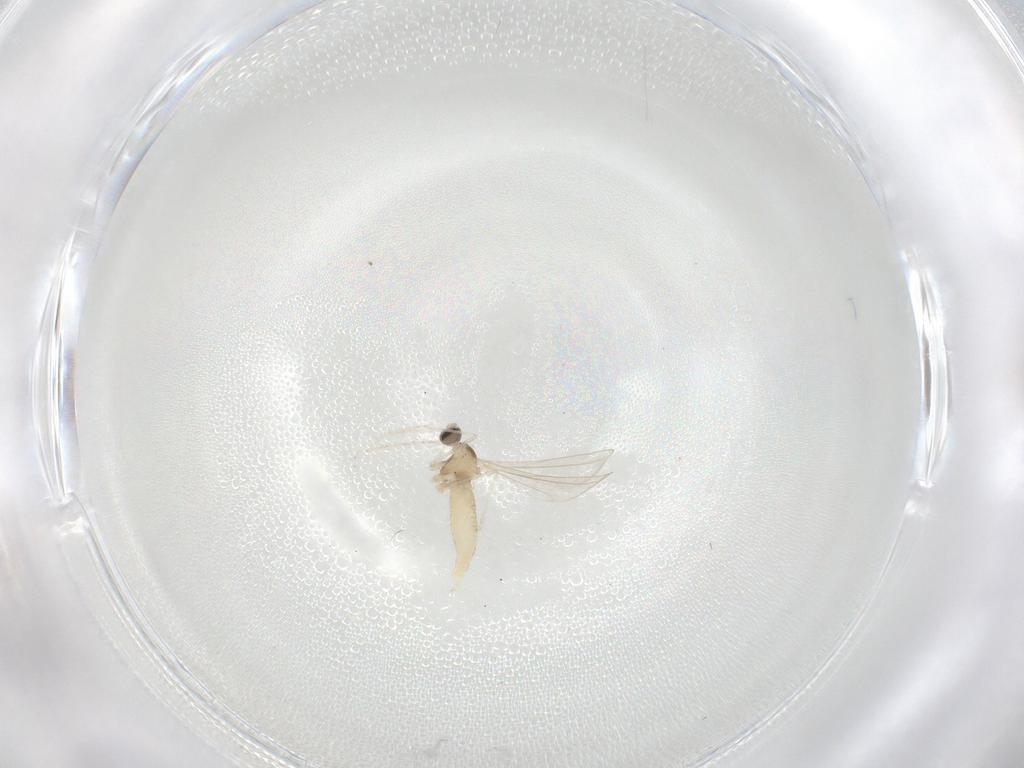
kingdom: Animalia
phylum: Arthropoda
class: Insecta
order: Diptera
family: Cecidomyiidae
